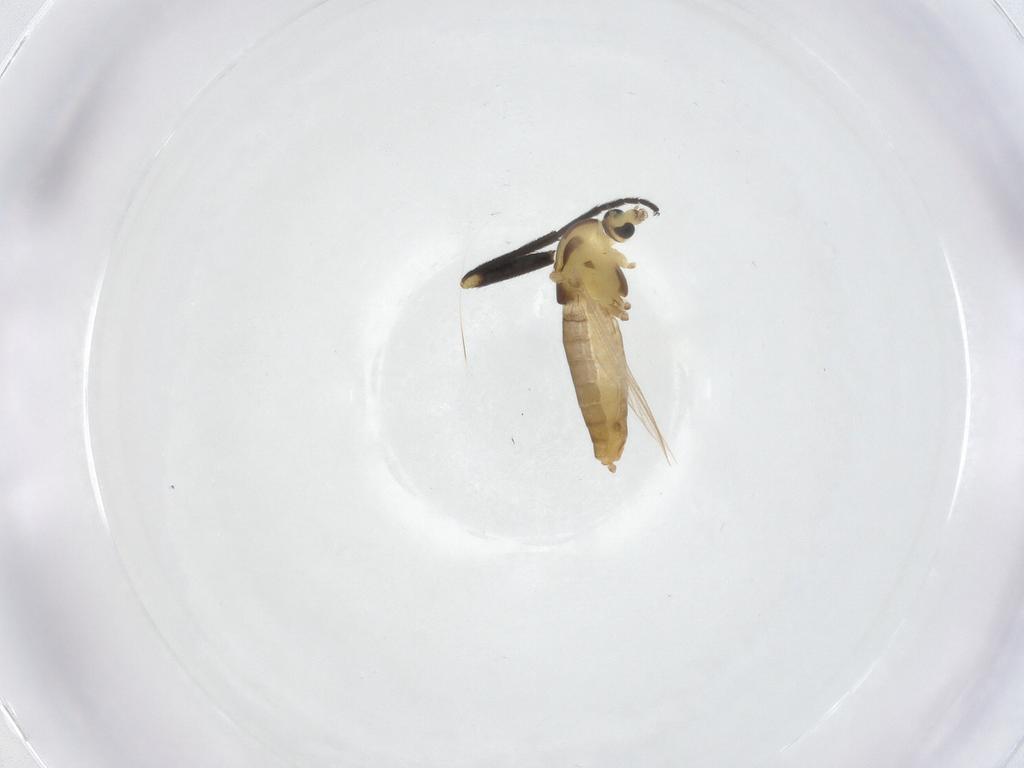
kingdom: Animalia
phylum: Arthropoda
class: Insecta
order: Diptera
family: Chironomidae
